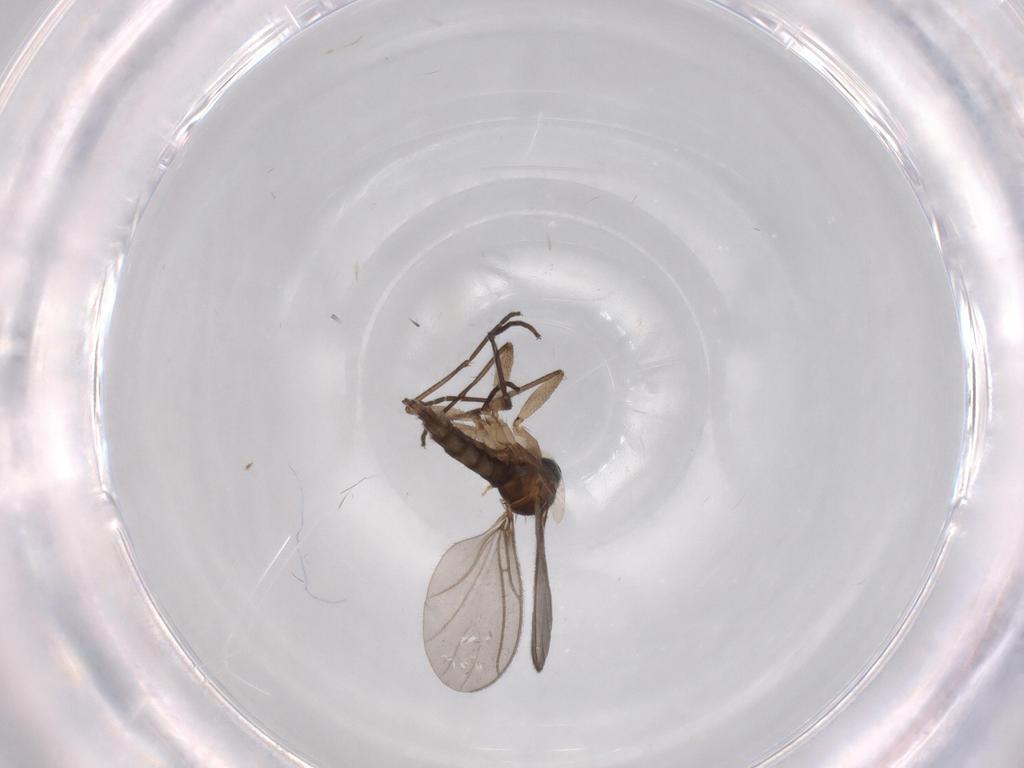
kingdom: Animalia
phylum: Arthropoda
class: Insecta
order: Diptera
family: Sciaridae
